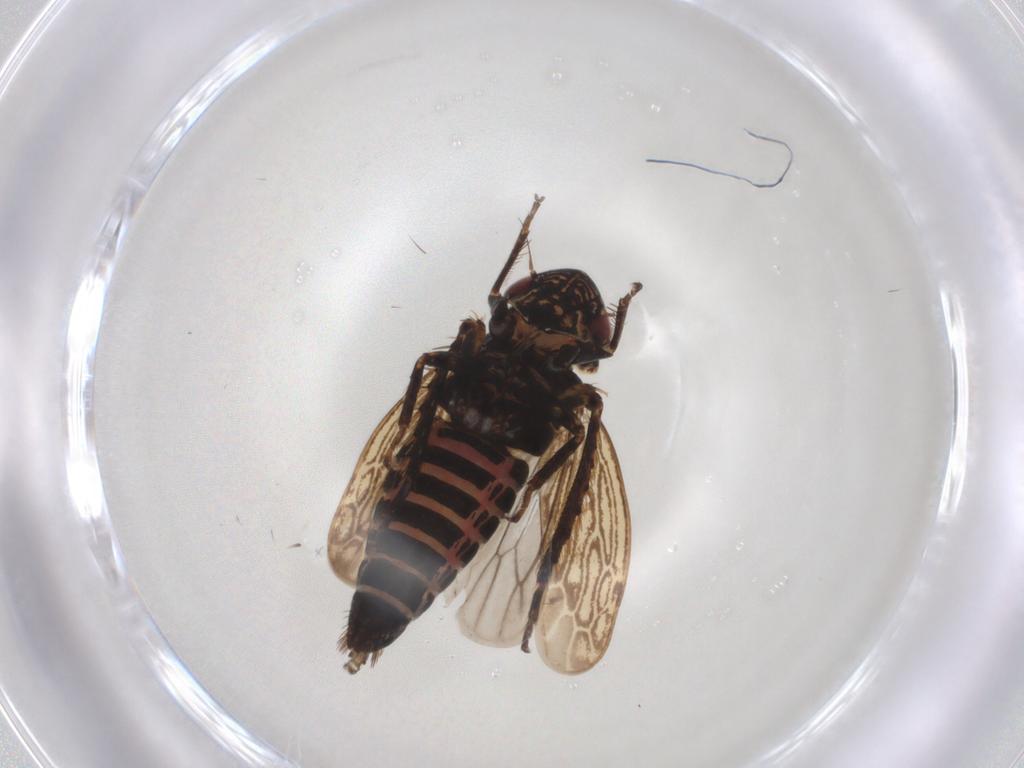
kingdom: Animalia
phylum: Arthropoda
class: Insecta
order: Hemiptera
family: Cicadellidae
